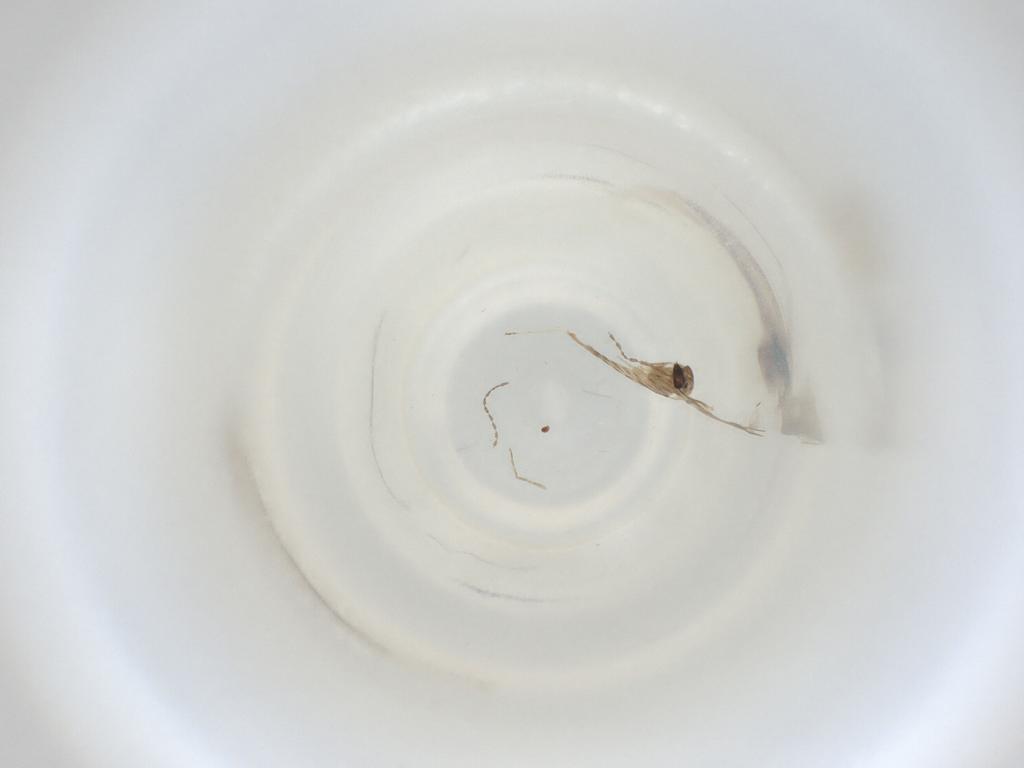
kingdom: Animalia
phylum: Arthropoda
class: Insecta
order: Diptera
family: Cecidomyiidae
